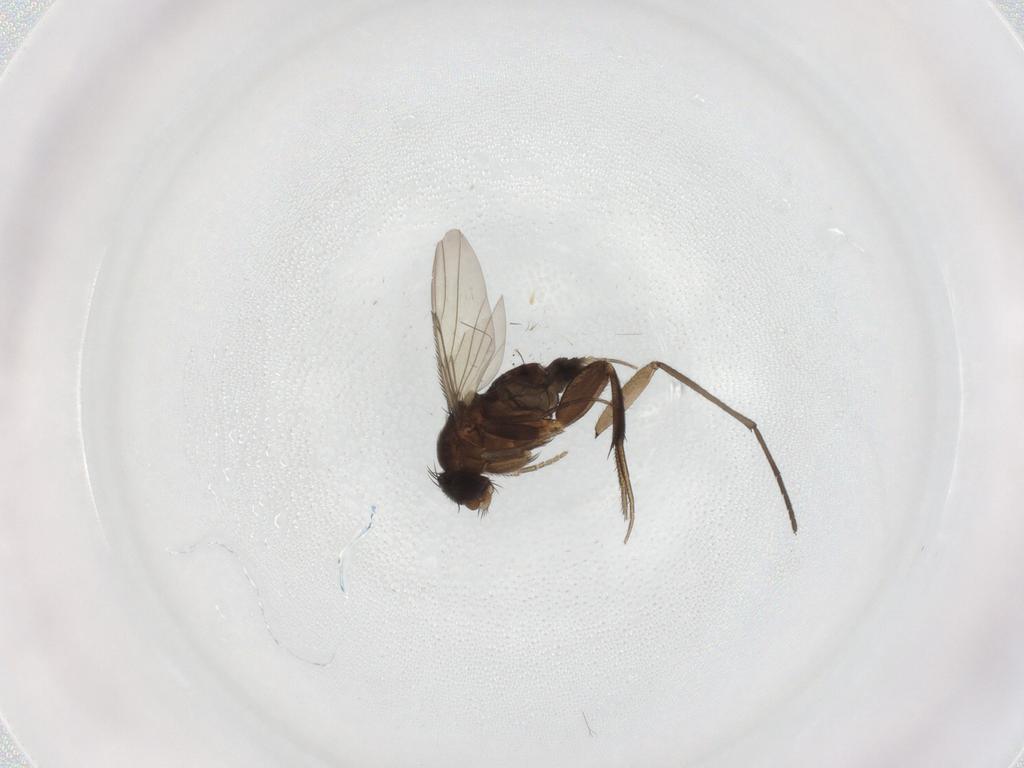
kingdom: Animalia
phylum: Arthropoda
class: Insecta
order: Diptera
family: Sciaridae
